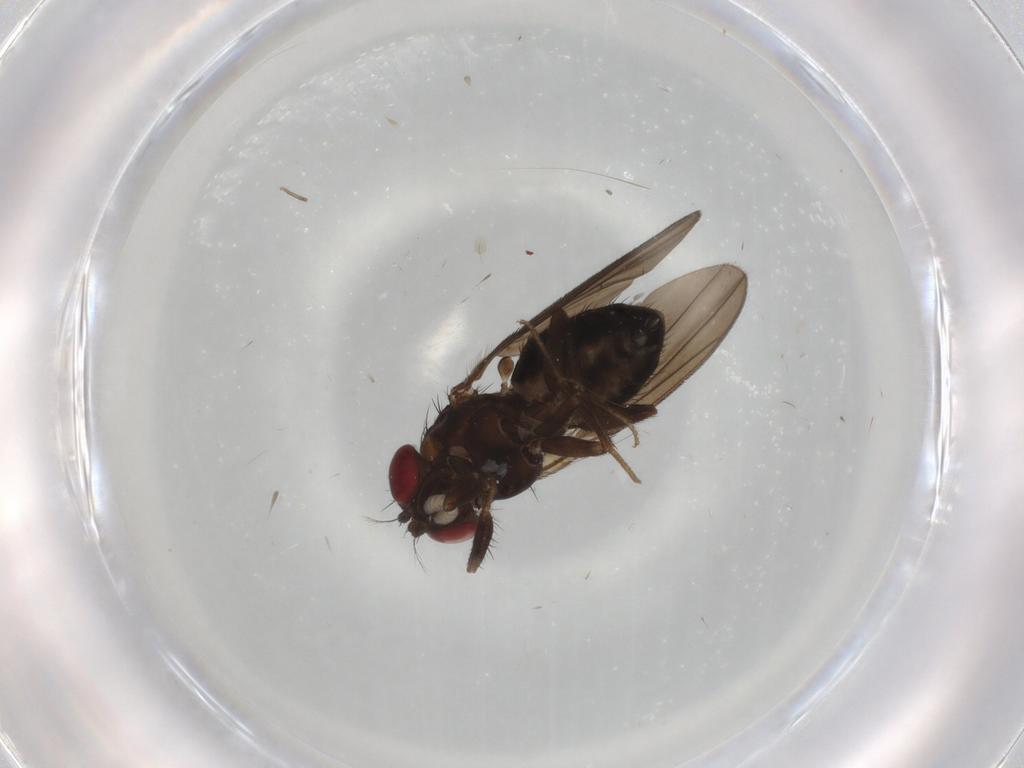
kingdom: Animalia
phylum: Arthropoda
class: Insecta
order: Diptera
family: Drosophilidae
